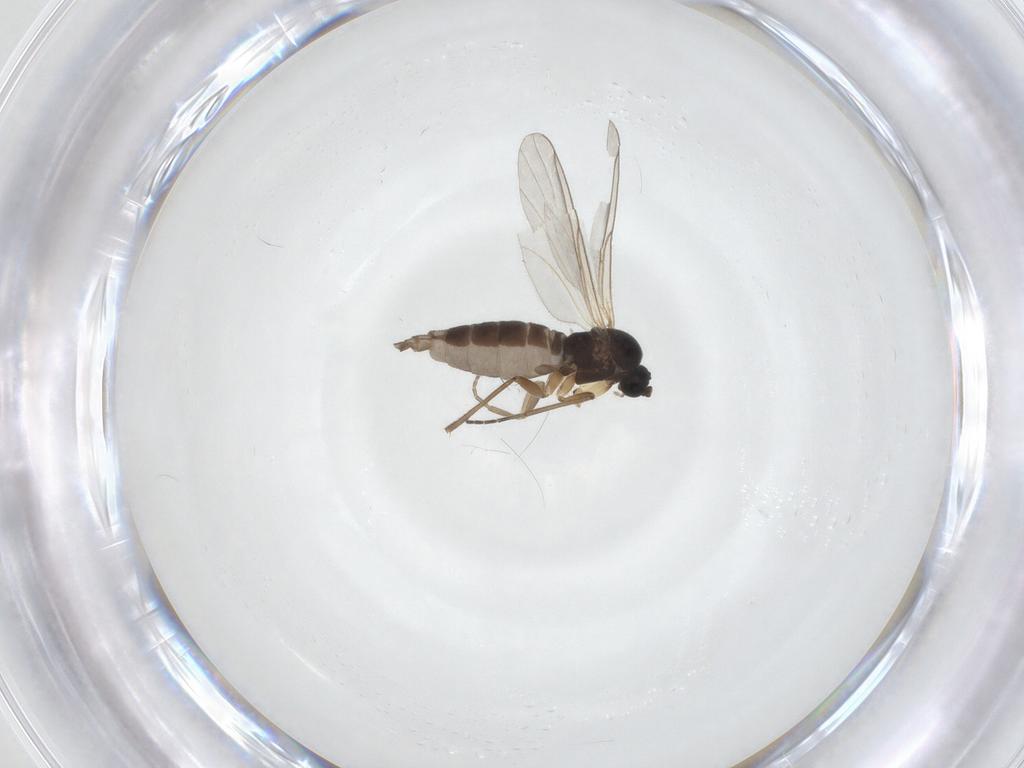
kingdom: Animalia
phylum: Arthropoda
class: Insecta
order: Diptera
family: Sciaridae
